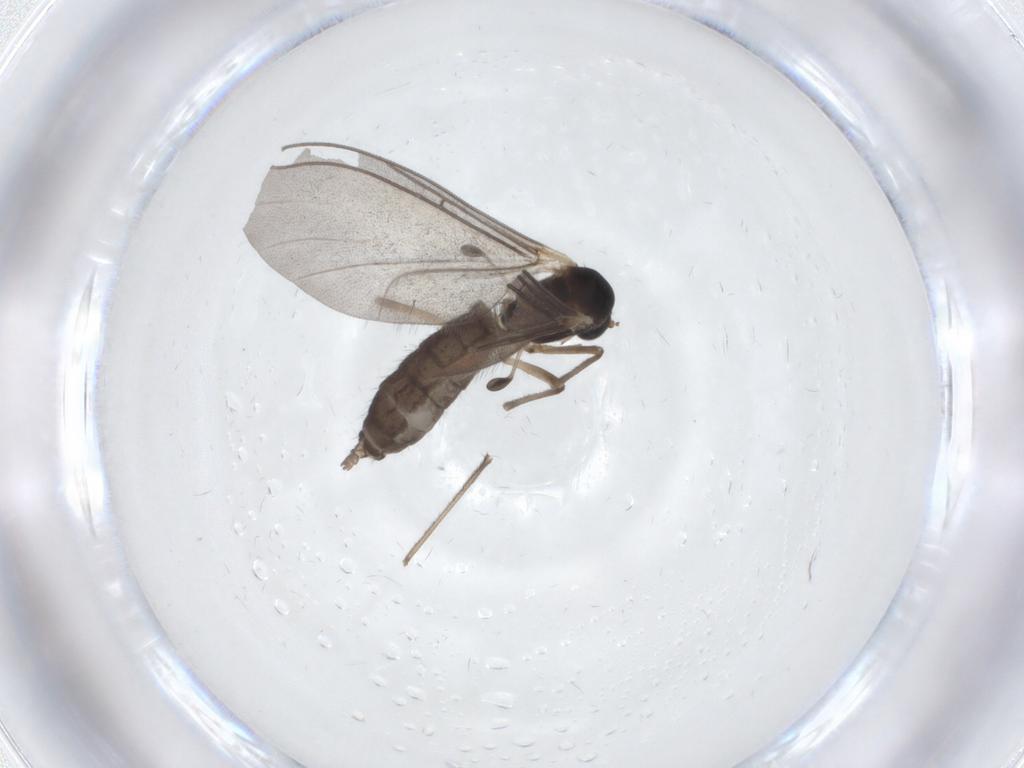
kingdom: Animalia
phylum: Arthropoda
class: Insecta
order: Diptera
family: Mycetophilidae
